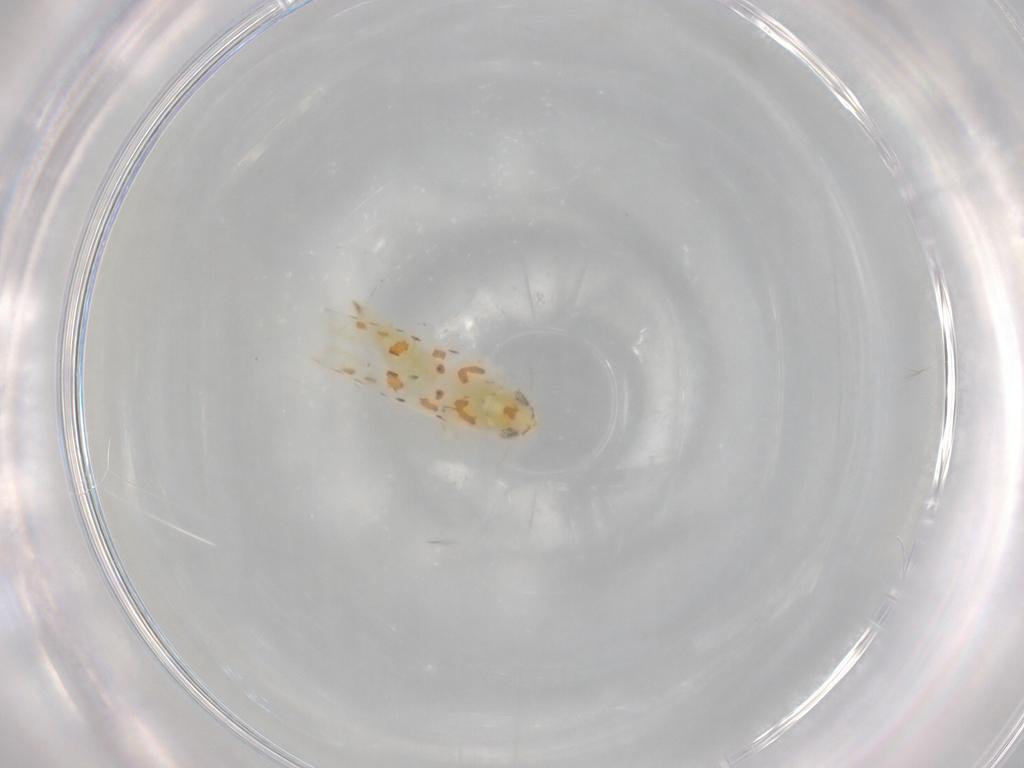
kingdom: Animalia
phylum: Arthropoda
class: Insecta
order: Hemiptera
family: Cicadellidae
